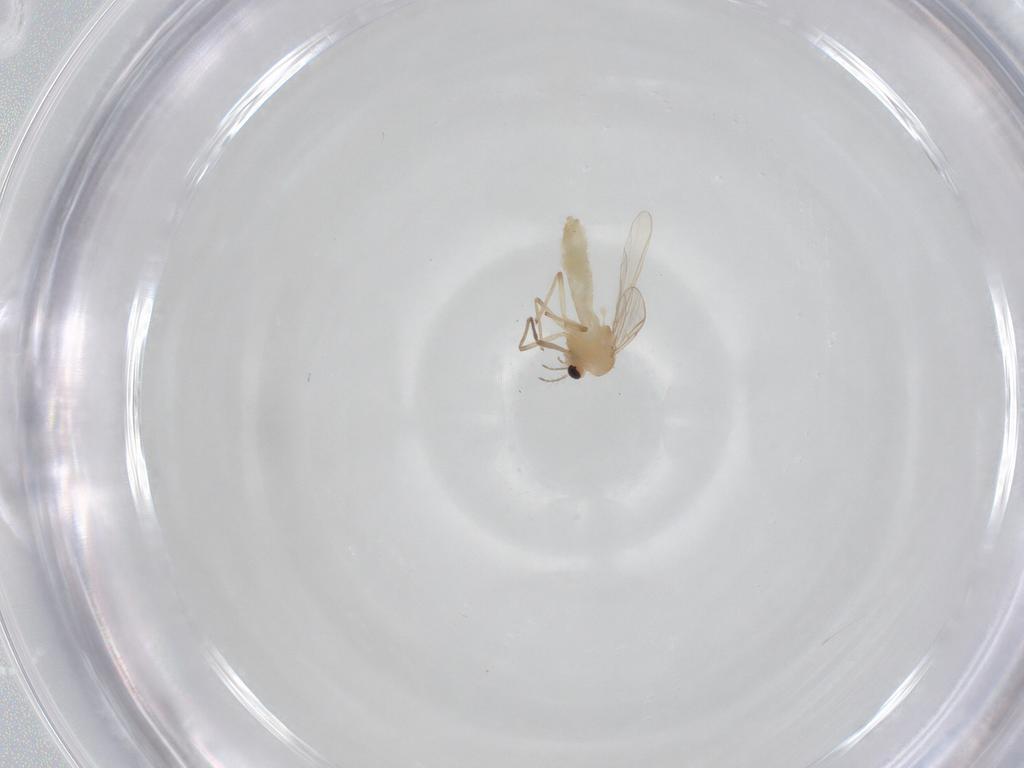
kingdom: Animalia
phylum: Arthropoda
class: Insecta
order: Diptera
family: Chironomidae
